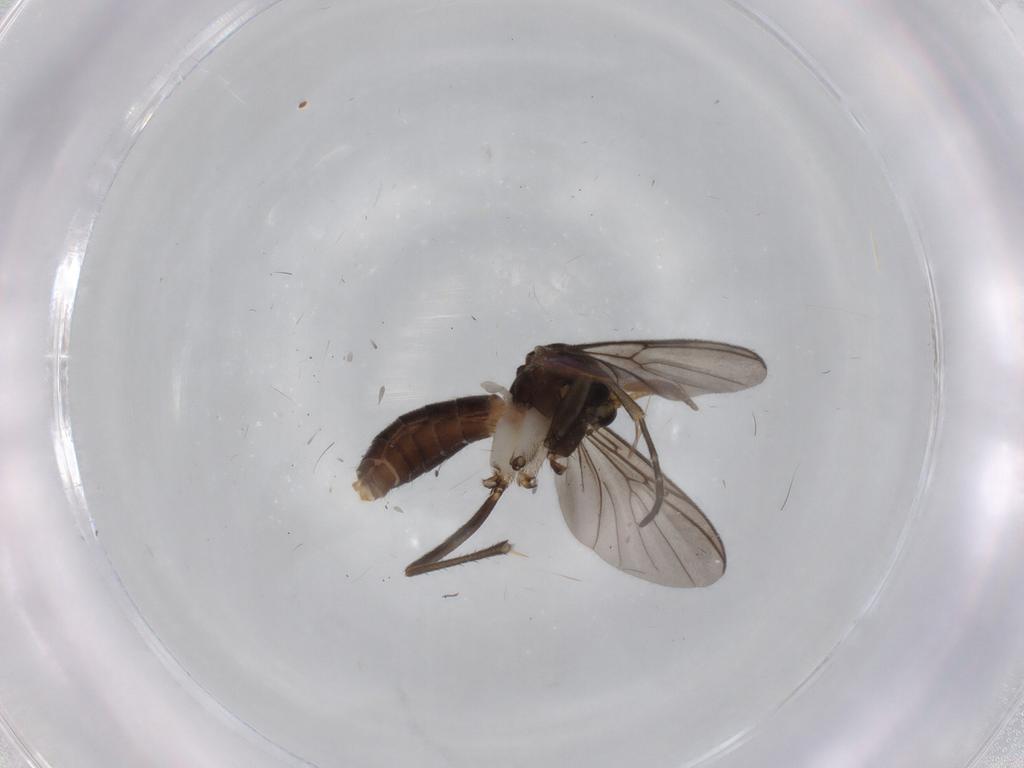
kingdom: Animalia
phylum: Arthropoda
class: Insecta
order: Diptera
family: Mycetophilidae
